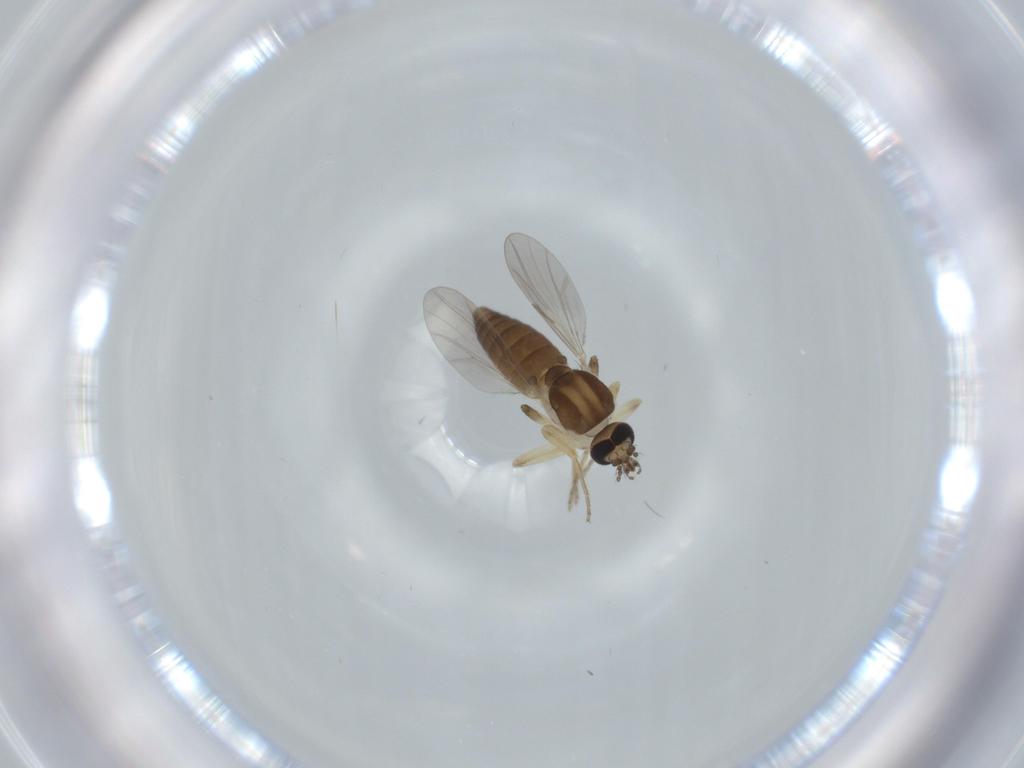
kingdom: Animalia
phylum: Arthropoda
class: Insecta
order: Diptera
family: Ceratopogonidae
